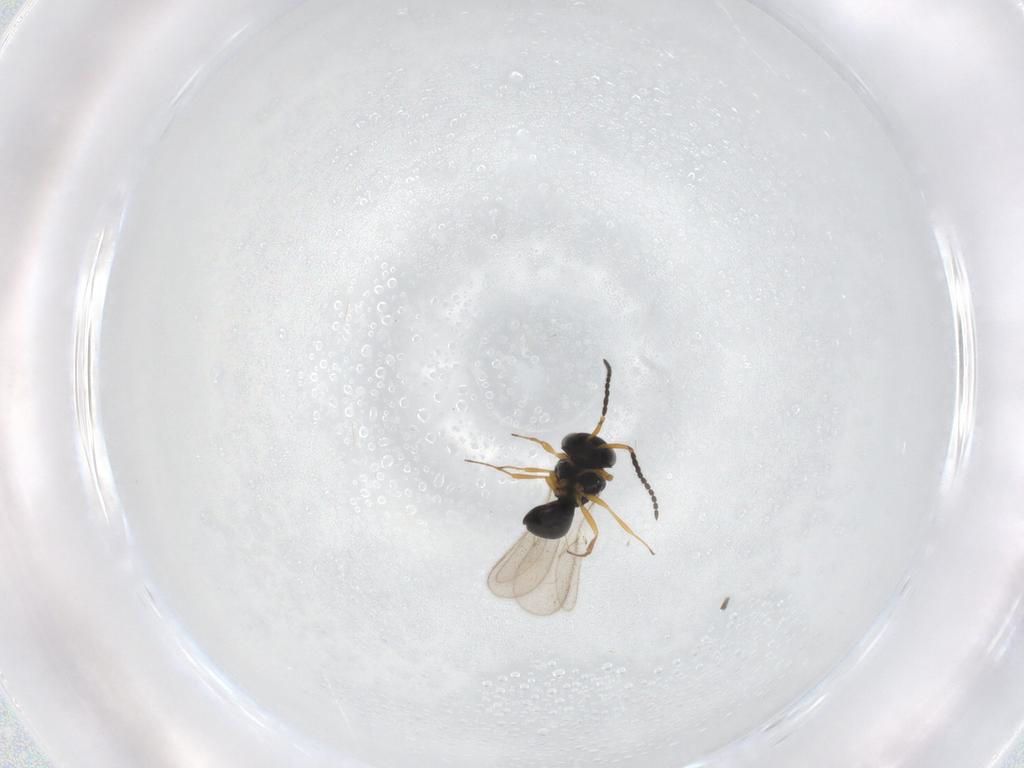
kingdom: Animalia
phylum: Arthropoda
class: Insecta
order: Hymenoptera
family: Scelionidae
